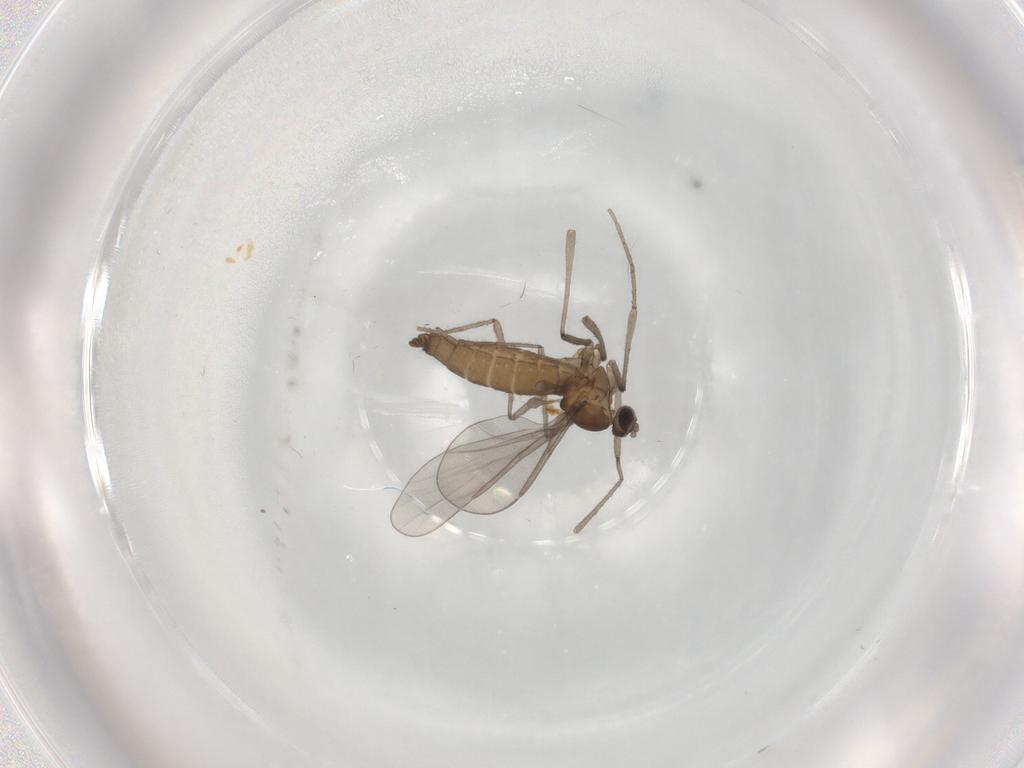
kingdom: Animalia
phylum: Arthropoda
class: Insecta
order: Diptera
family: Cecidomyiidae
